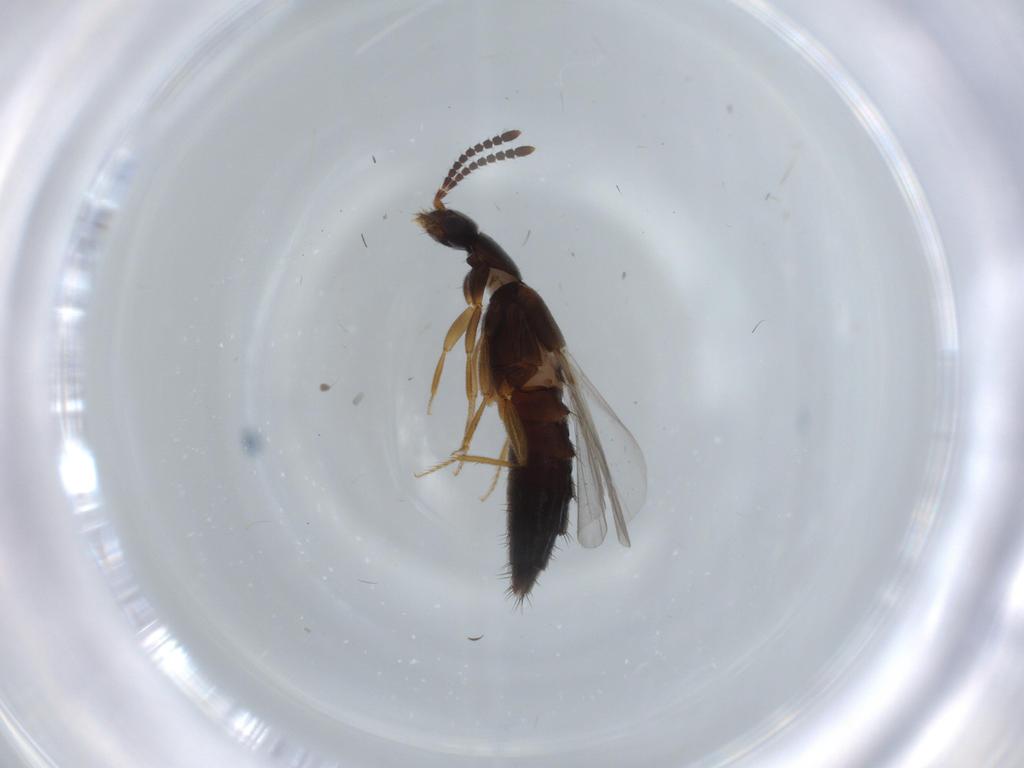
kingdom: Animalia
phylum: Arthropoda
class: Insecta
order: Coleoptera
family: Staphylinidae
